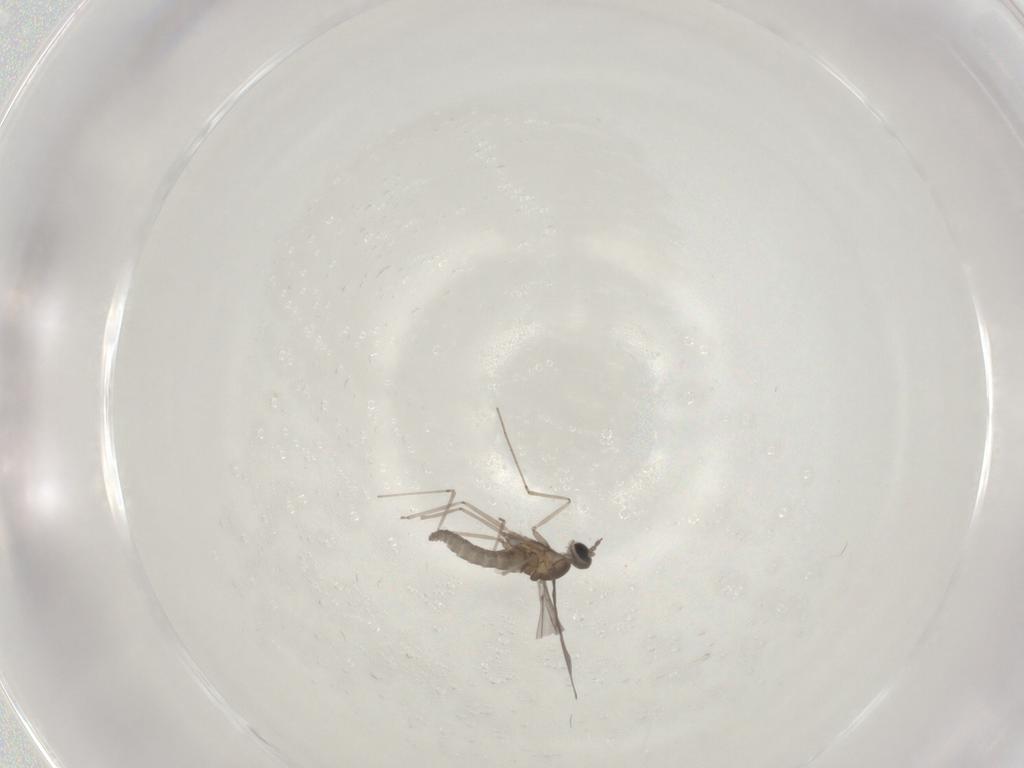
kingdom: Animalia
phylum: Arthropoda
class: Insecta
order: Diptera
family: Cecidomyiidae
